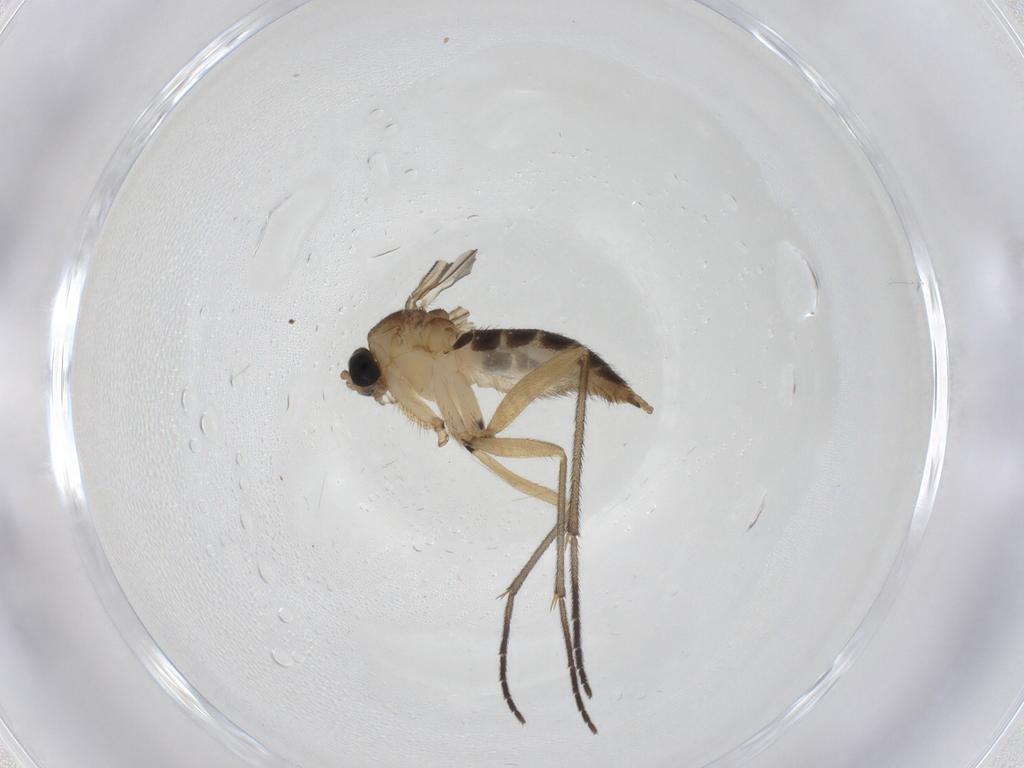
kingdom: Animalia
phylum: Arthropoda
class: Insecta
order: Diptera
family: Sciaridae
